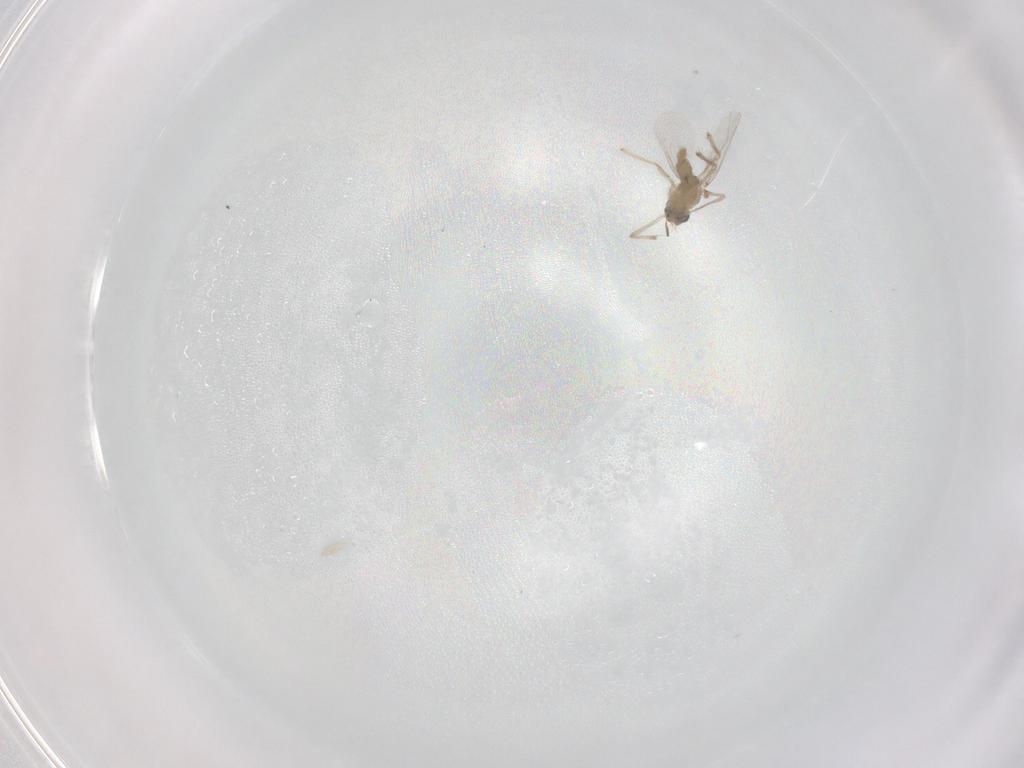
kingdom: Animalia
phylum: Arthropoda
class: Insecta
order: Diptera
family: Chironomidae
